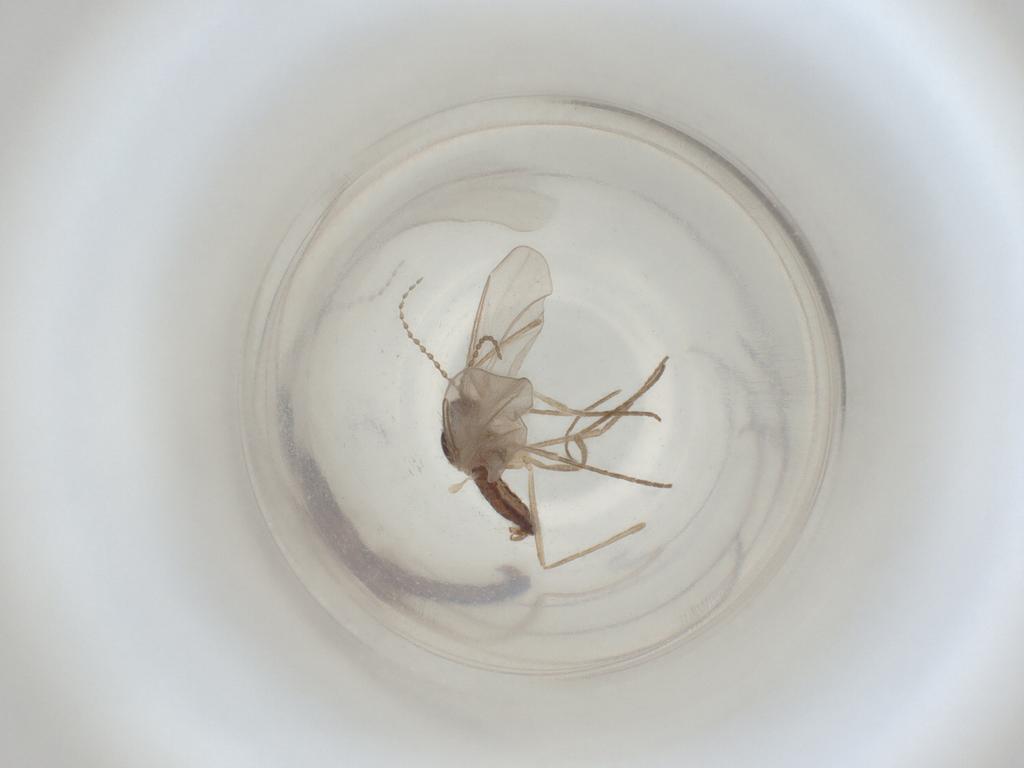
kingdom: Animalia
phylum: Arthropoda
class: Insecta
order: Diptera
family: Cecidomyiidae
